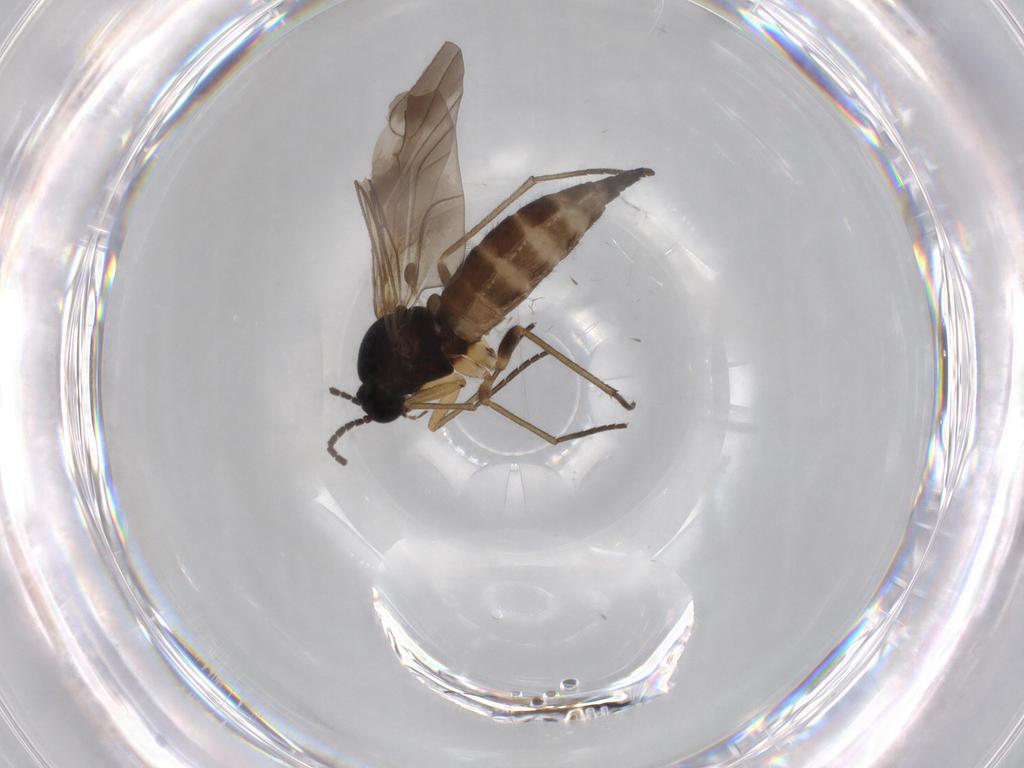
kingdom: Animalia
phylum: Arthropoda
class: Insecta
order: Diptera
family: Sciaridae
